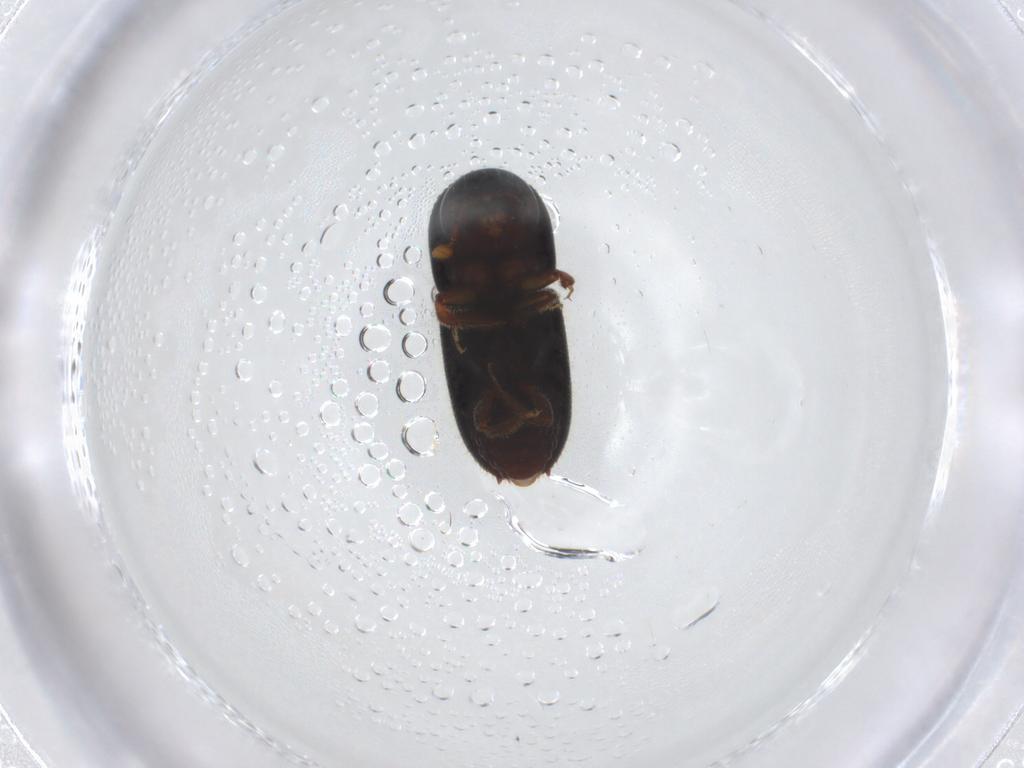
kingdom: Animalia
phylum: Arthropoda
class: Insecta
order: Coleoptera
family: Curculionidae
